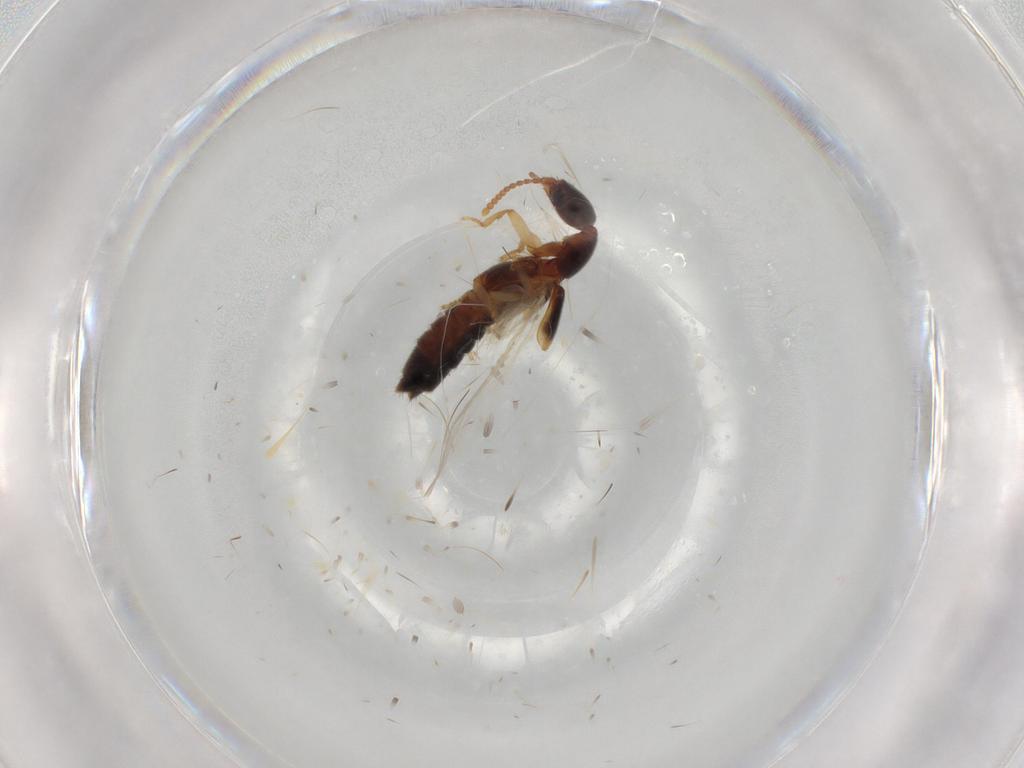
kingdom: Animalia
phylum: Arthropoda
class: Insecta
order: Coleoptera
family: Staphylinidae
